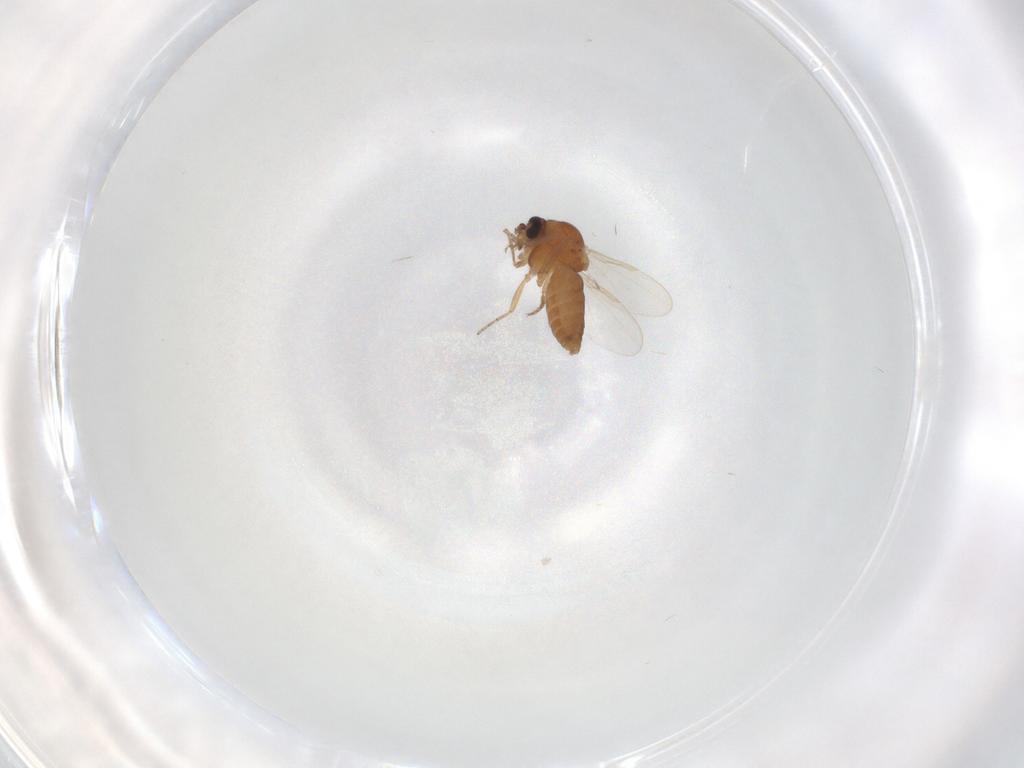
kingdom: Animalia
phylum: Arthropoda
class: Insecta
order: Diptera
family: Ceratopogonidae
